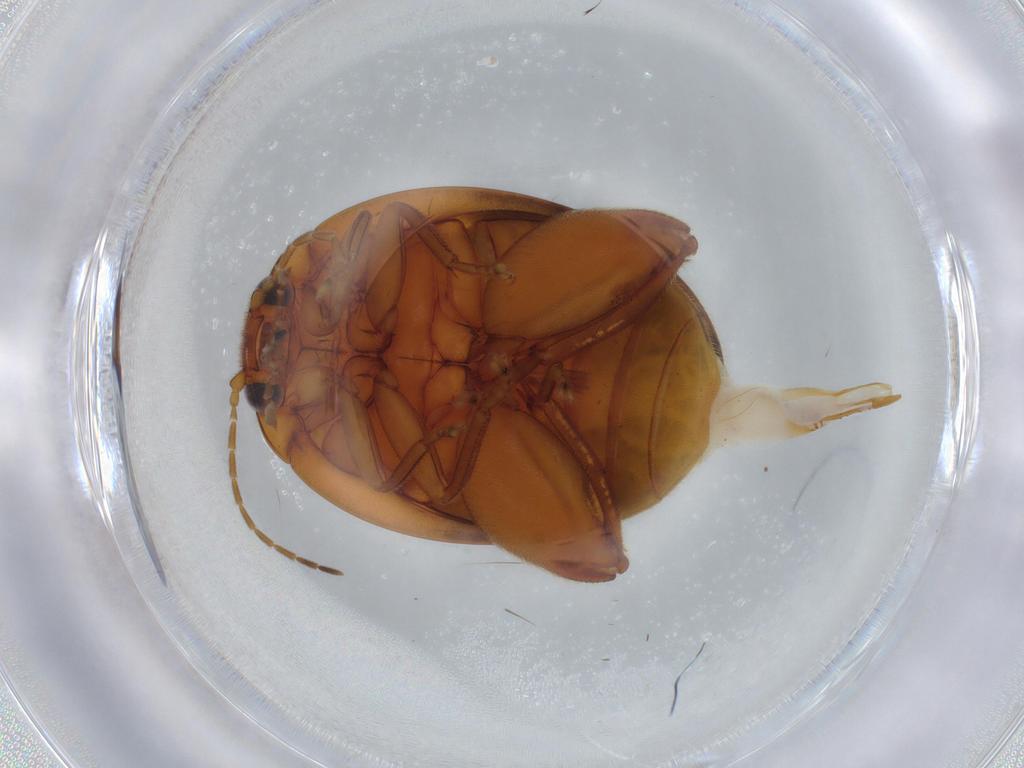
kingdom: Animalia
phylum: Arthropoda
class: Insecta
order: Coleoptera
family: Scirtidae
